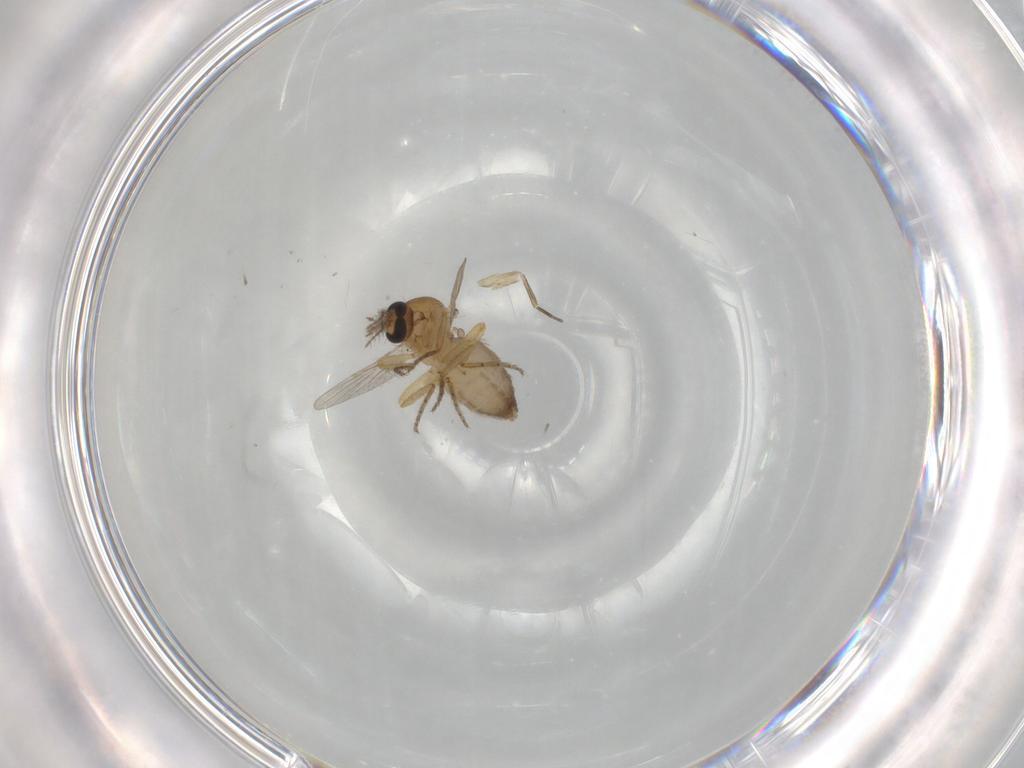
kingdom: Animalia
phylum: Arthropoda
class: Insecta
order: Diptera
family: Ceratopogonidae
